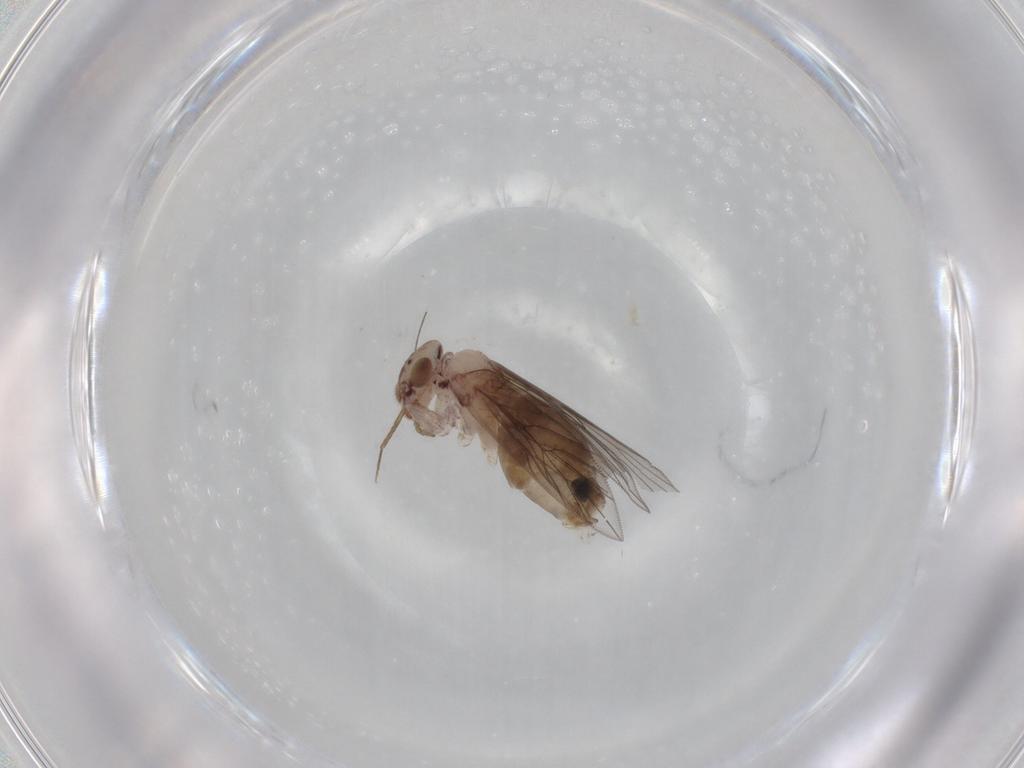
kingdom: Animalia
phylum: Arthropoda
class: Insecta
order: Psocodea
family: Lepidopsocidae
